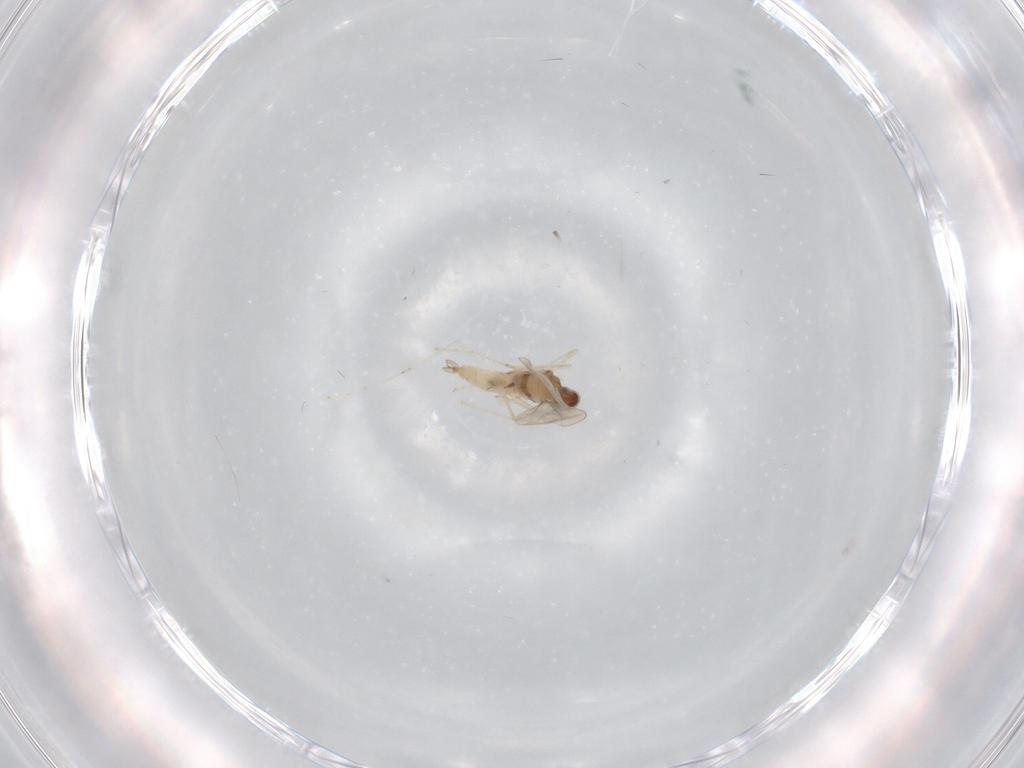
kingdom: Animalia
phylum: Arthropoda
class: Insecta
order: Diptera
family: Cecidomyiidae
